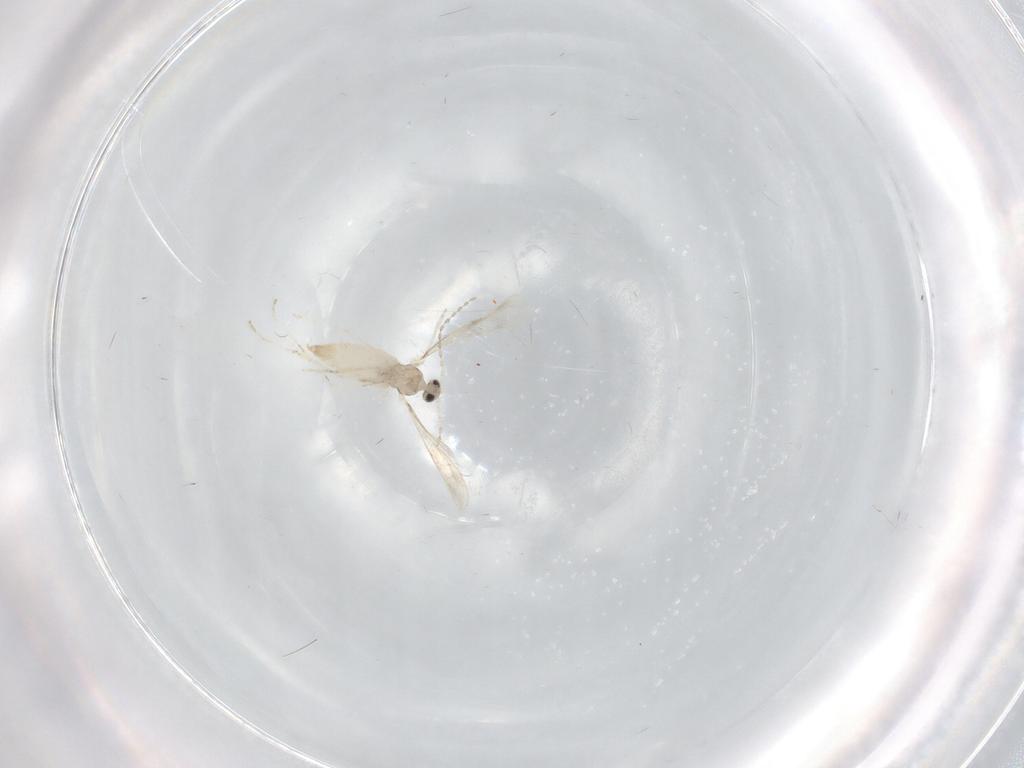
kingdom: Animalia
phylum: Arthropoda
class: Insecta
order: Diptera
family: Cecidomyiidae
